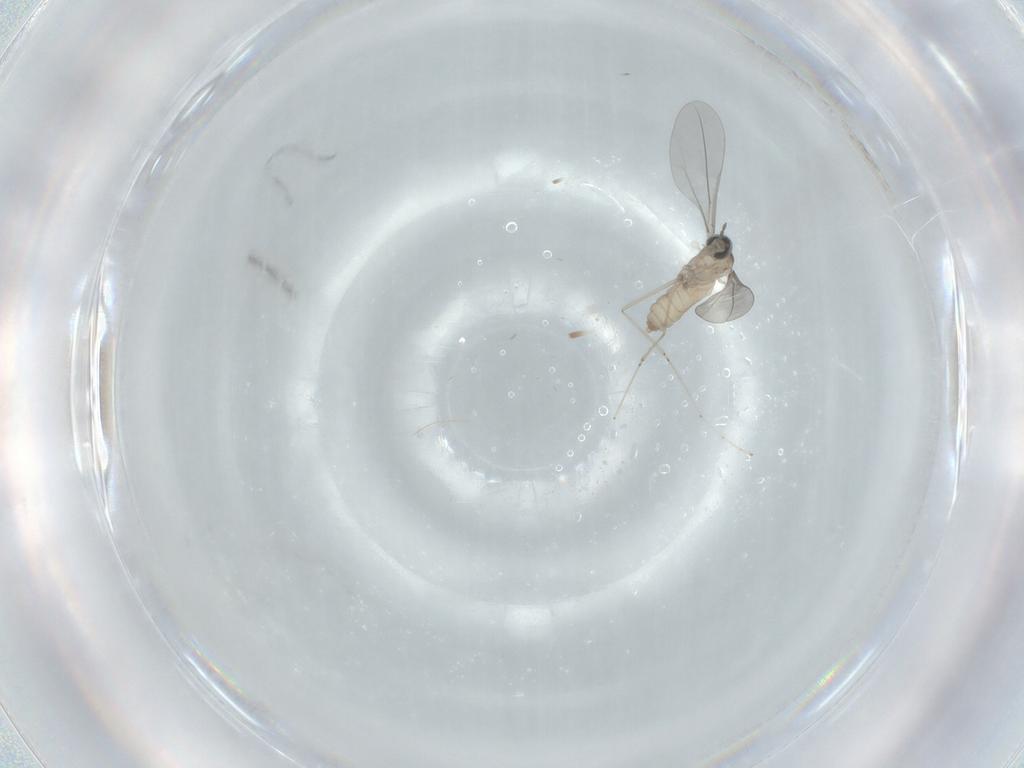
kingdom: Animalia
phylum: Arthropoda
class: Insecta
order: Diptera
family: Cecidomyiidae
